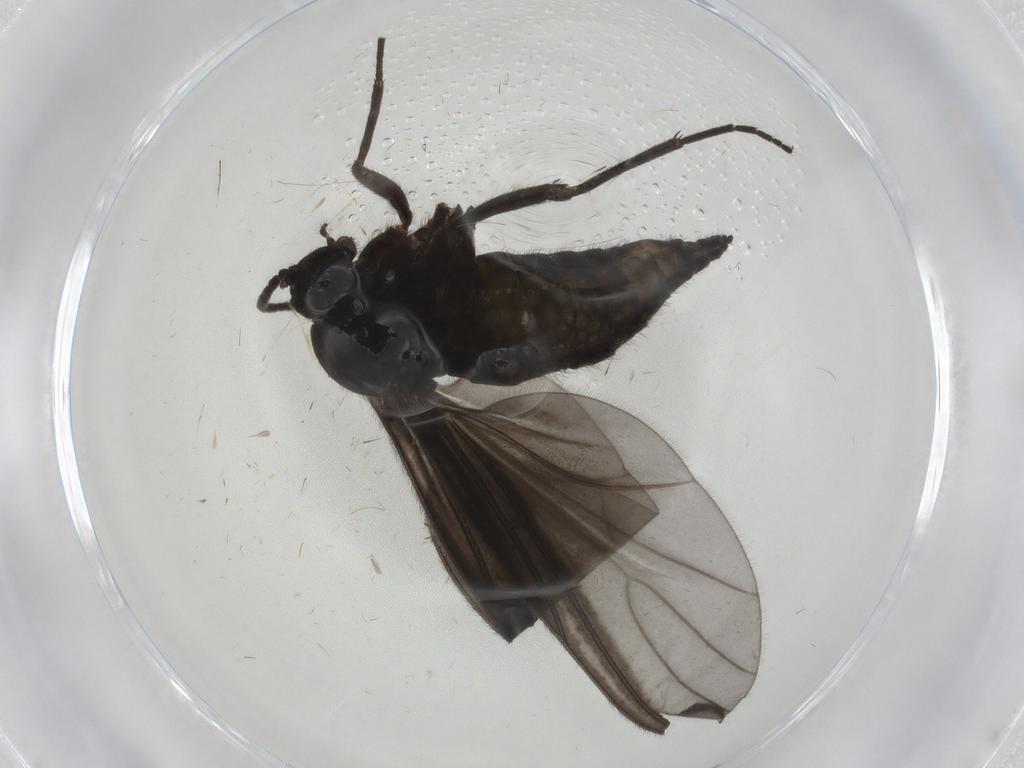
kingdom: Animalia
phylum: Arthropoda
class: Insecta
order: Diptera
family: Sciaridae
